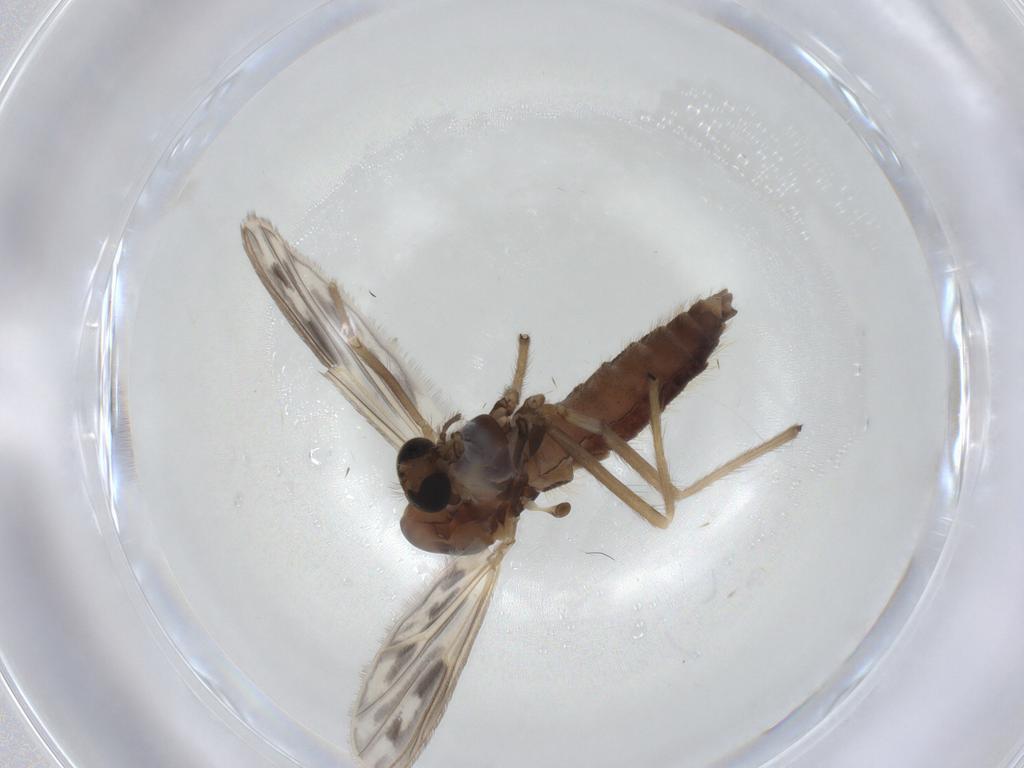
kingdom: Animalia
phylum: Arthropoda
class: Insecta
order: Diptera
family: Chironomidae
